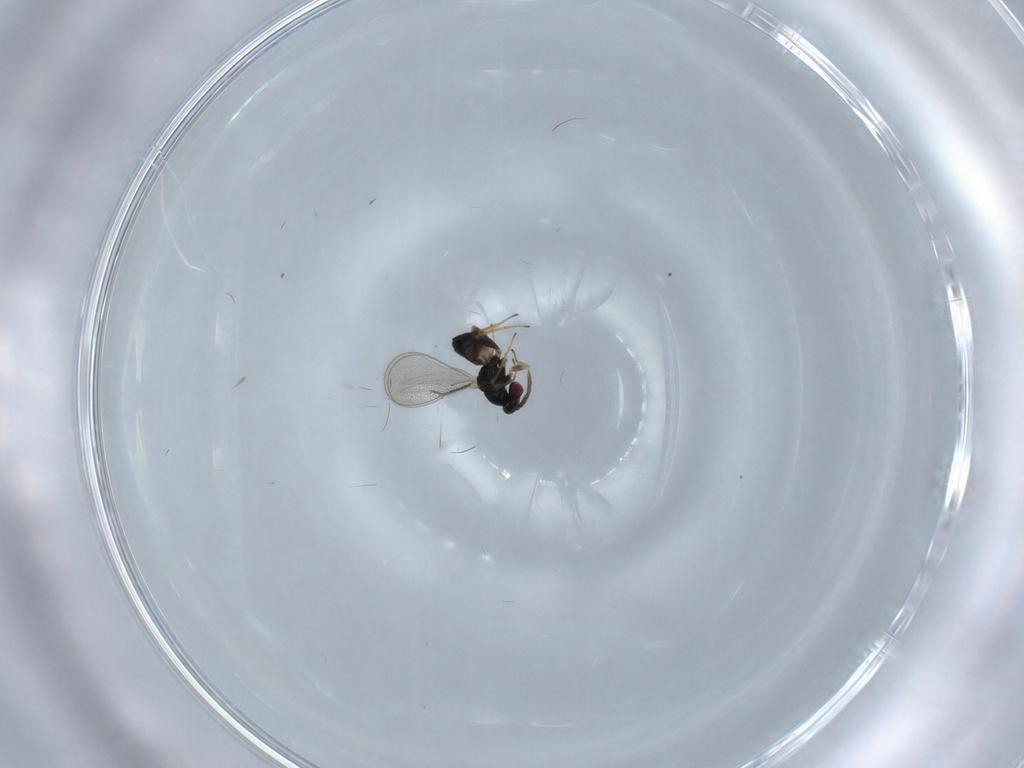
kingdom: Animalia
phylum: Arthropoda
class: Insecta
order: Hymenoptera
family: Eulophidae
